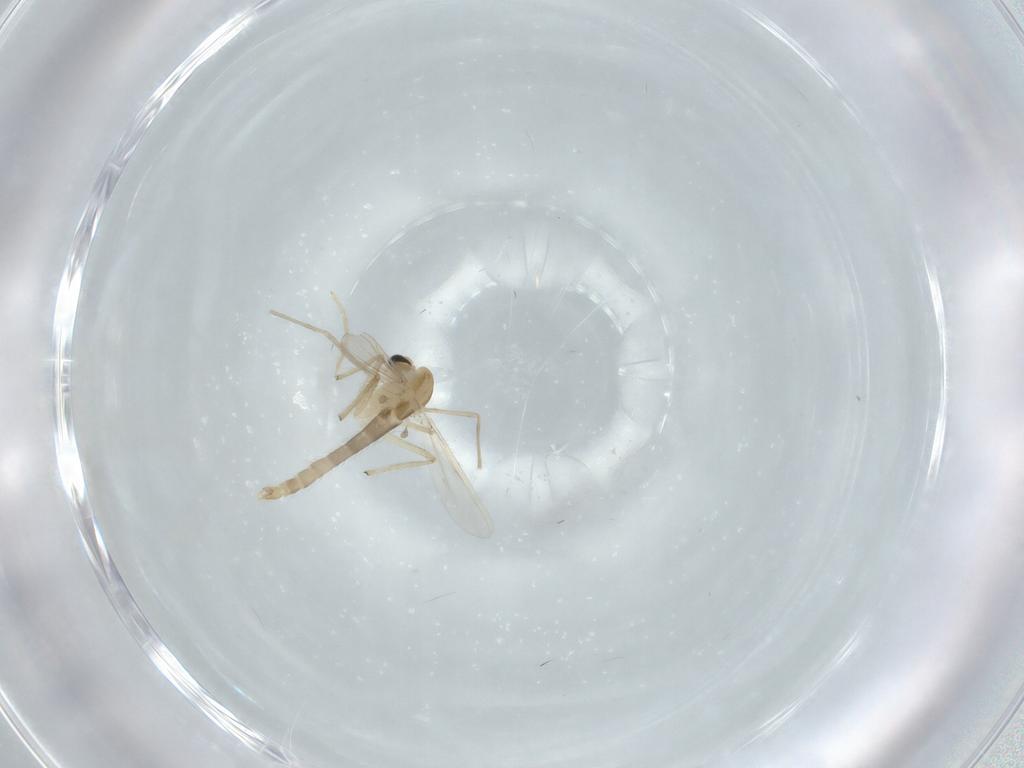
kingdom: Animalia
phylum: Arthropoda
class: Insecta
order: Diptera
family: Chironomidae
